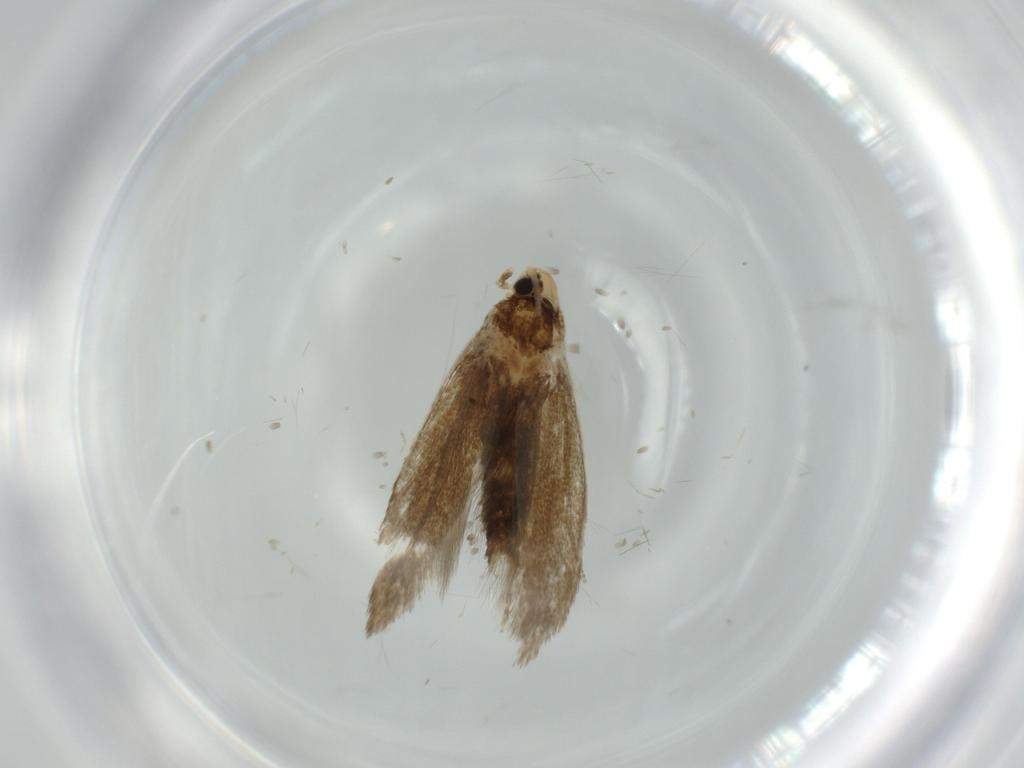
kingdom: Animalia
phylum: Arthropoda
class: Insecta
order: Lepidoptera
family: Tineidae
